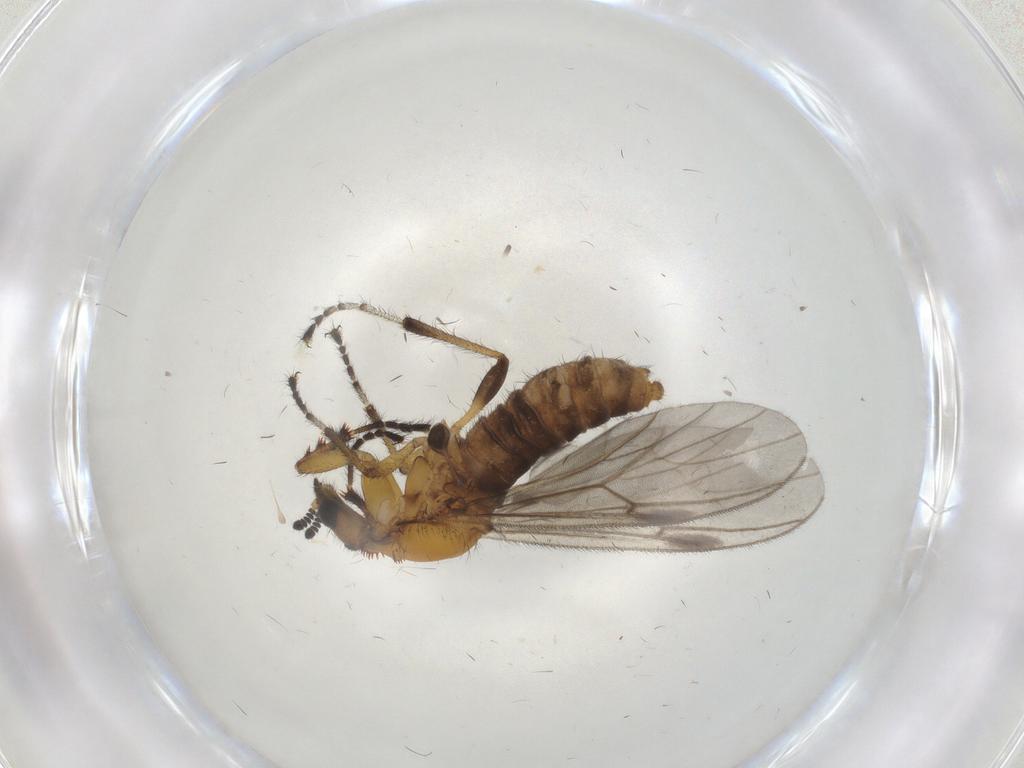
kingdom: Animalia
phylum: Arthropoda
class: Insecta
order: Diptera
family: Bibionidae
